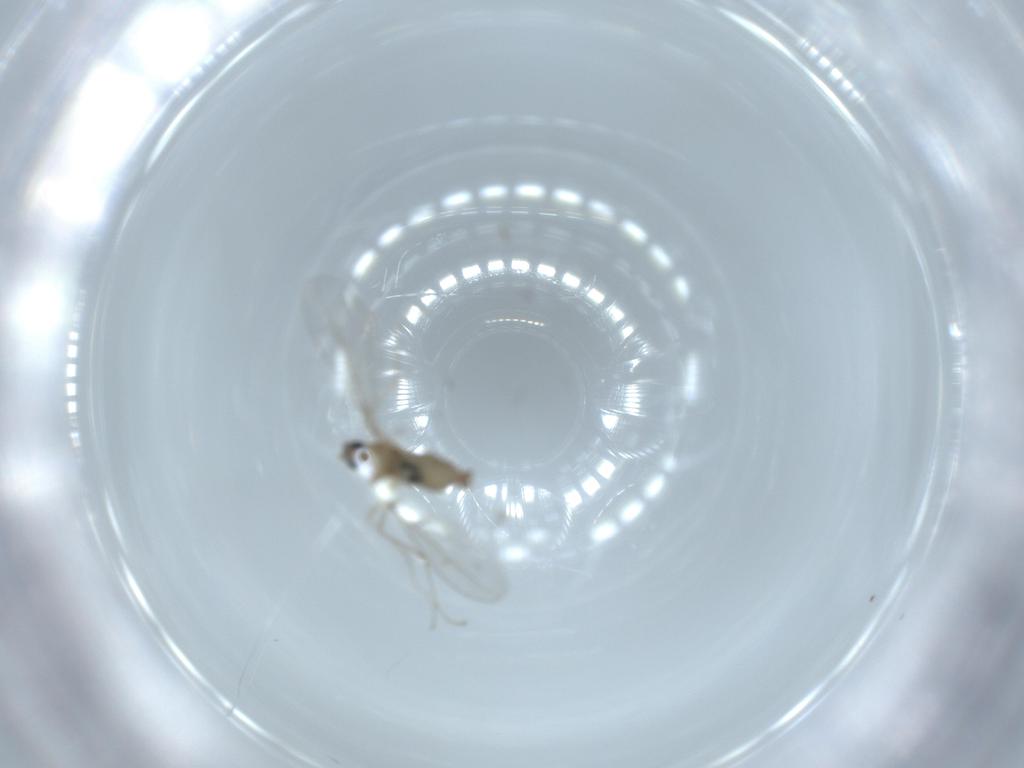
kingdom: Animalia
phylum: Arthropoda
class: Insecta
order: Diptera
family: Cecidomyiidae
